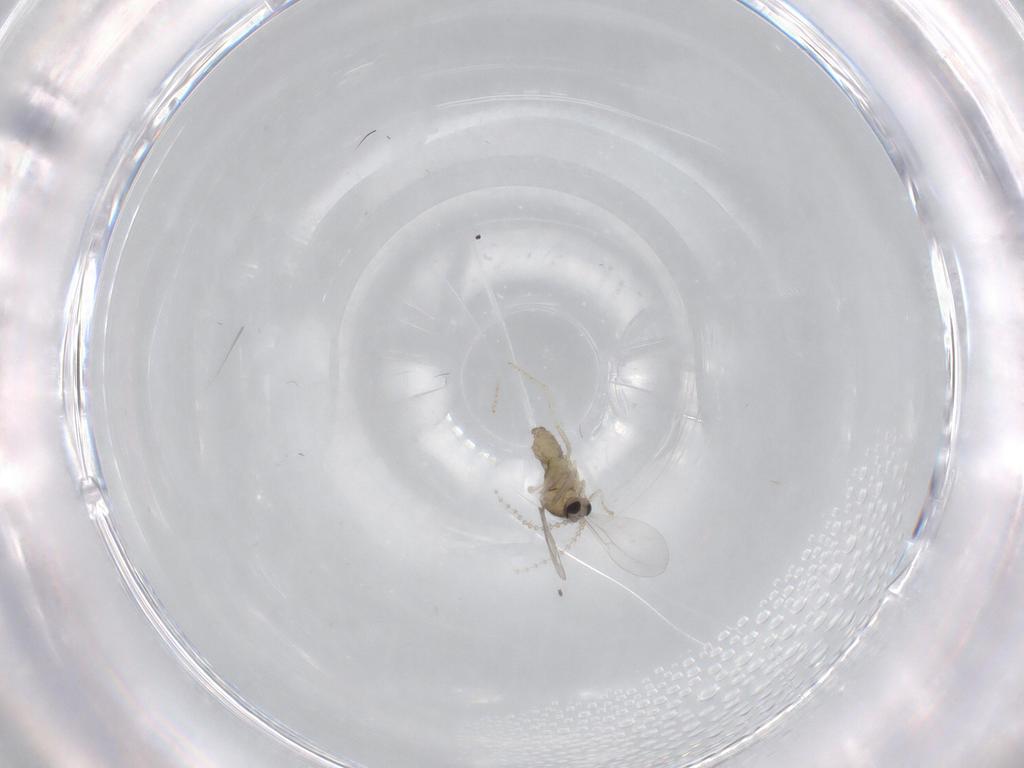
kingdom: Animalia
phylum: Arthropoda
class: Insecta
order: Diptera
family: Cecidomyiidae
